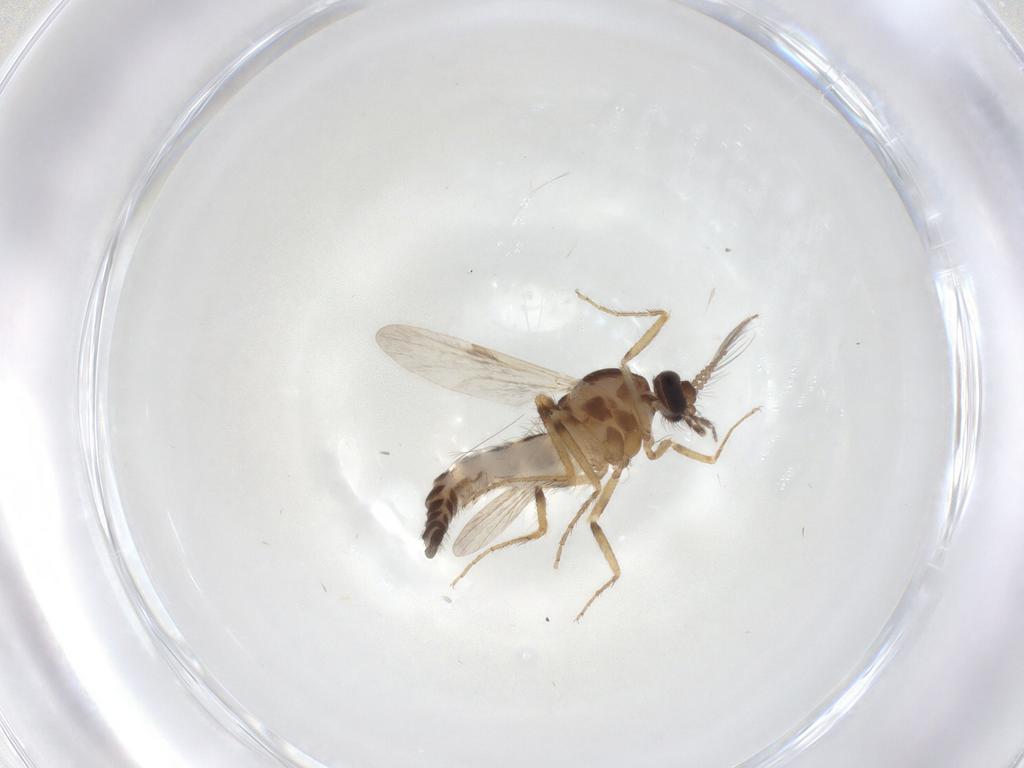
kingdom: Animalia
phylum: Arthropoda
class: Insecta
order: Diptera
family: Ceratopogonidae
